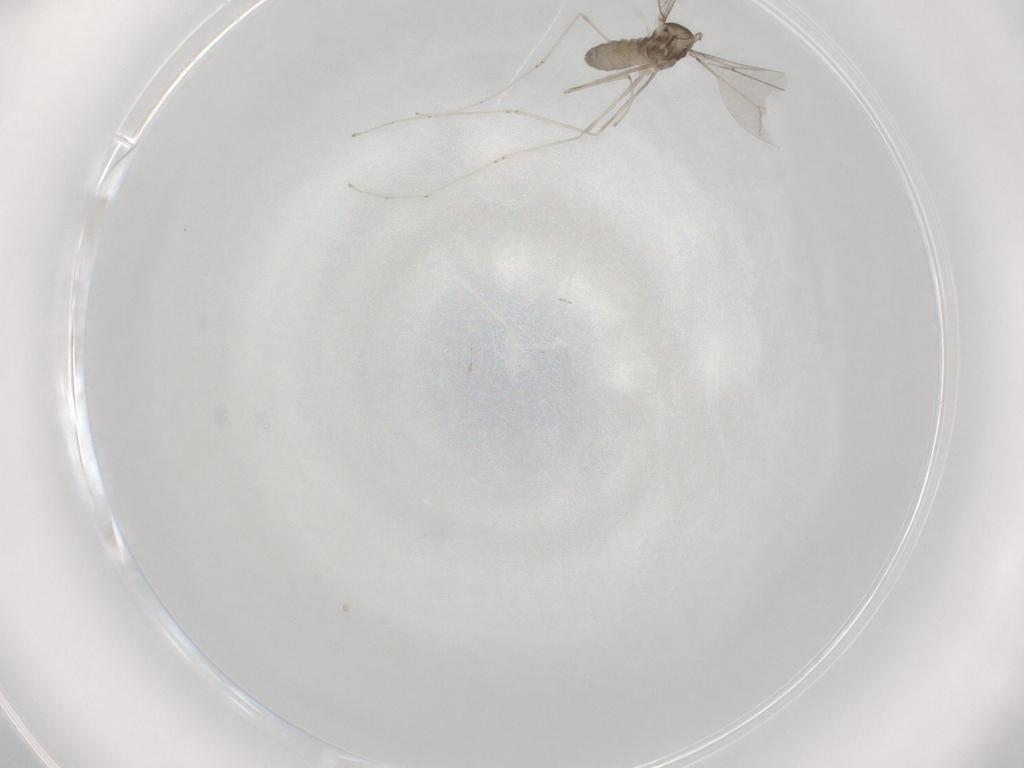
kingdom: Animalia
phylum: Arthropoda
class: Insecta
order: Diptera
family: Cecidomyiidae
